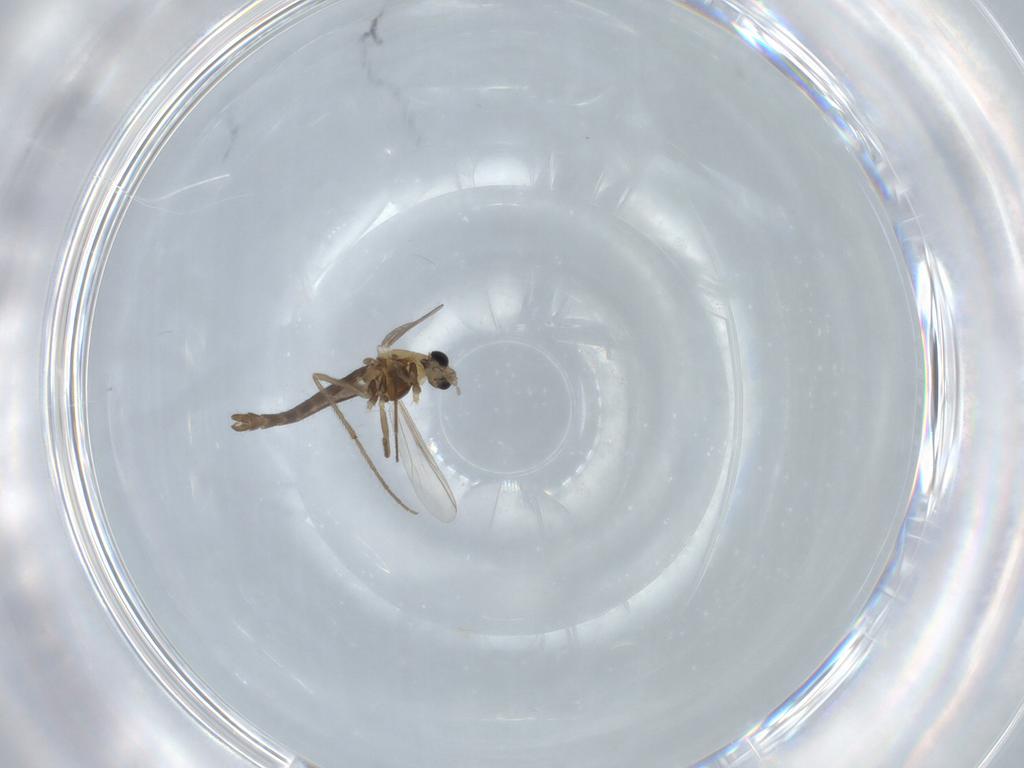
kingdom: Animalia
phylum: Arthropoda
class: Insecta
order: Diptera
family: Chironomidae
